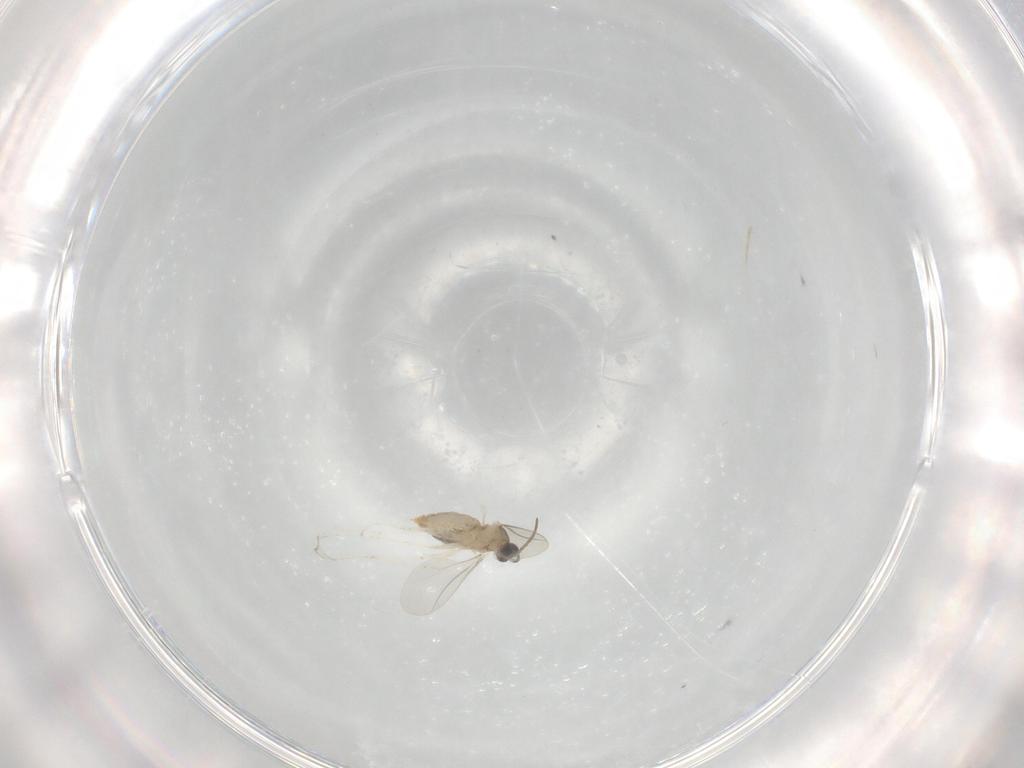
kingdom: Animalia
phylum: Arthropoda
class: Insecta
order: Diptera
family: Cecidomyiidae
